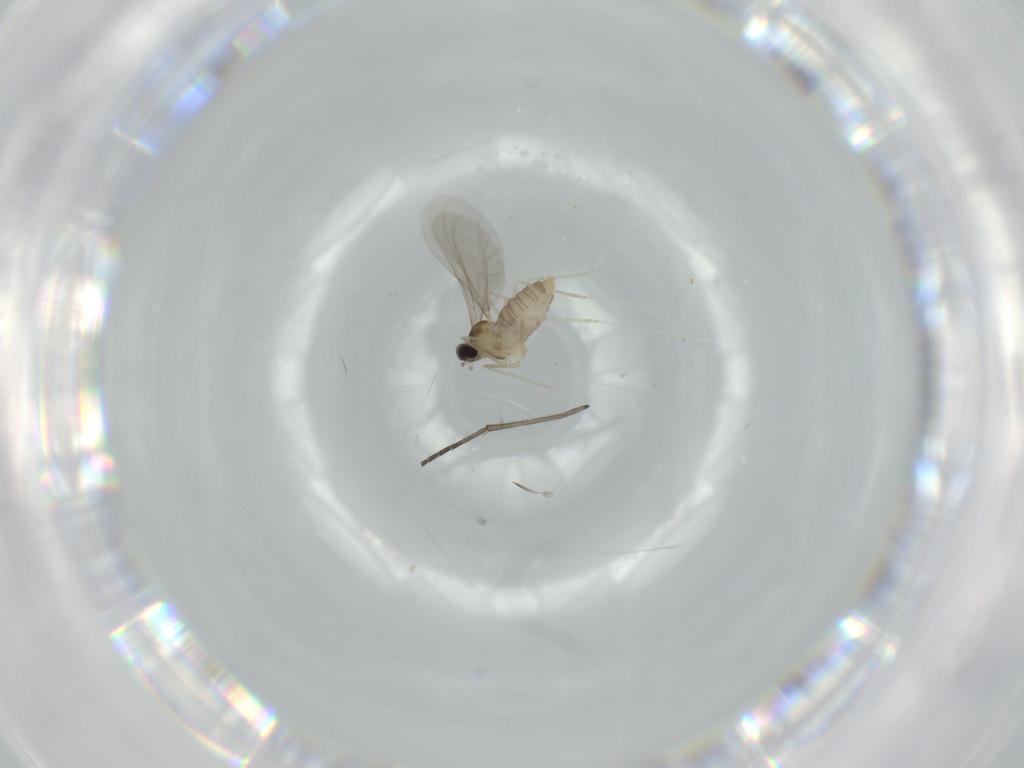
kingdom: Animalia
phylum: Arthropoda
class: Insecta
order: Diptera
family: Cecidomyiidae
